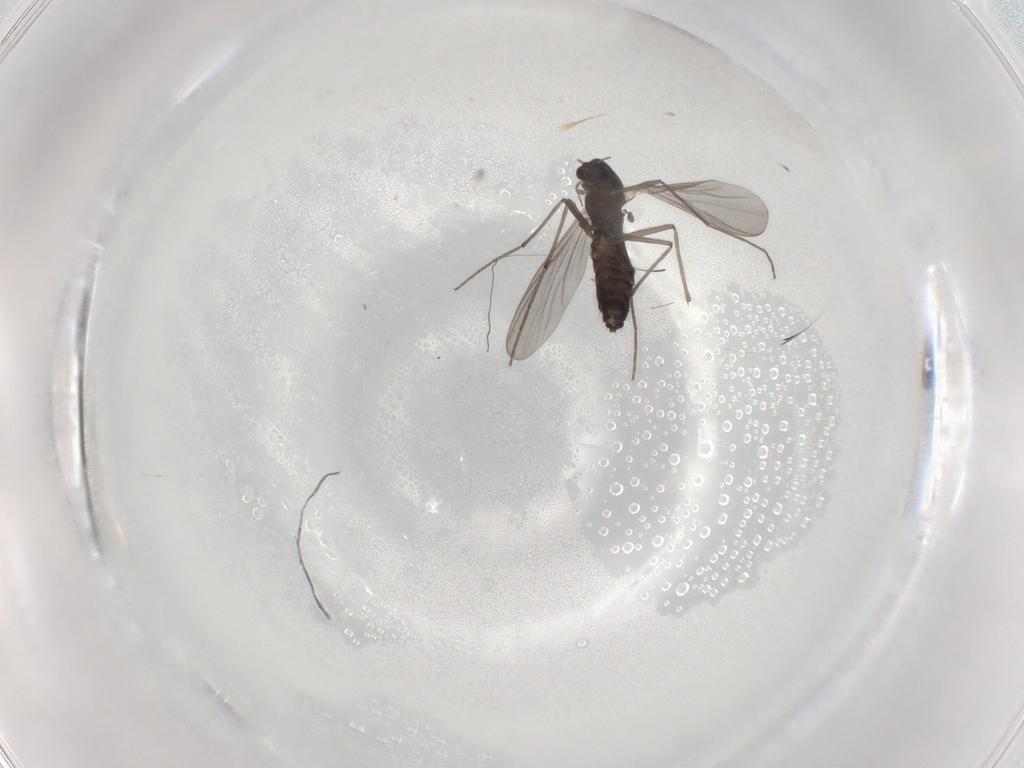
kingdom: Animalia
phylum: Arthropoda
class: Insecta
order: Diptera
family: Chironomidae
